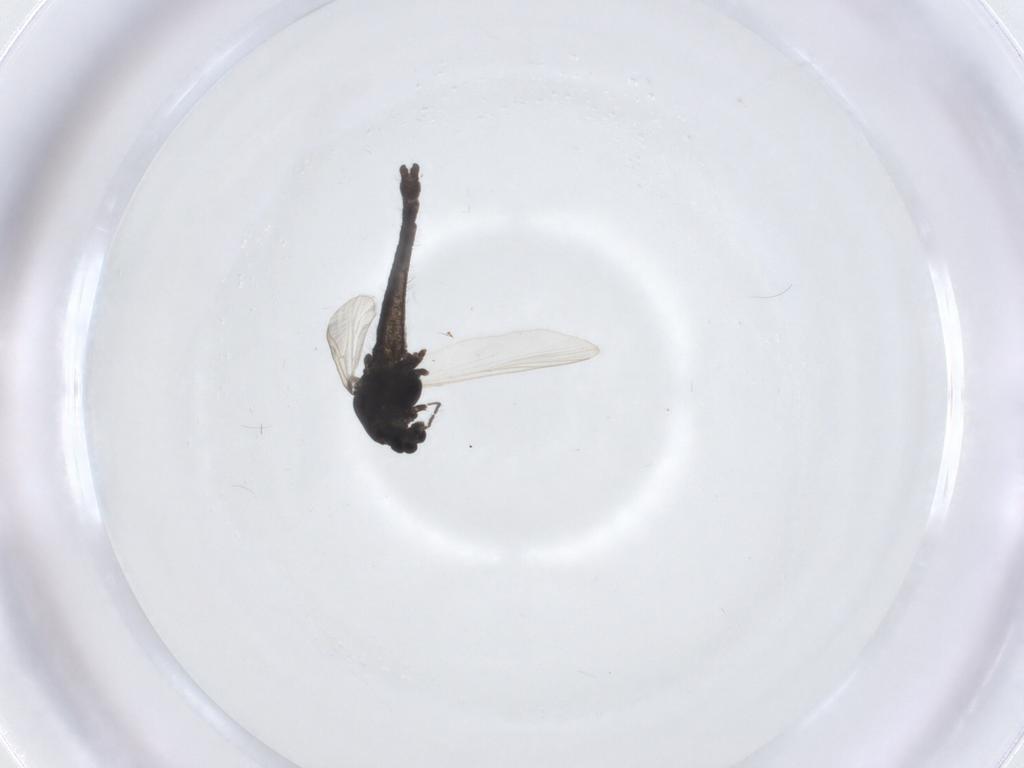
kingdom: Animalia
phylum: Arthropoda
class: Insecta
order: Diptera
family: Chironomidae
